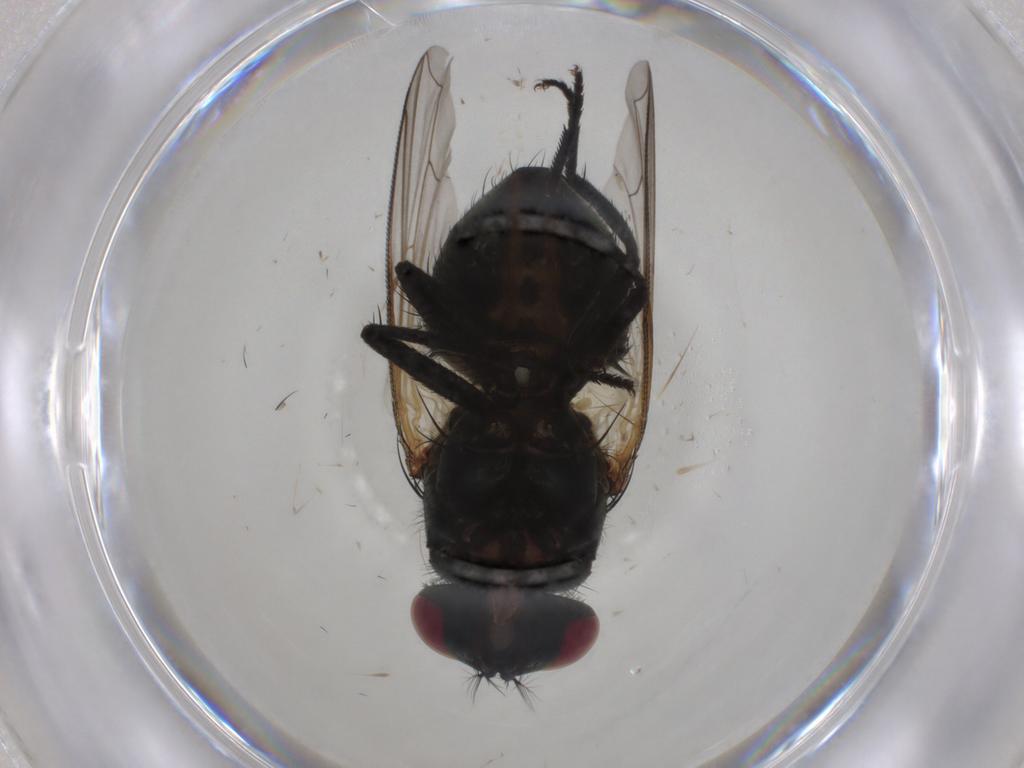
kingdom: Animalia
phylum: Arthropoda
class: Insecta
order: Diptera
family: Muscidae
